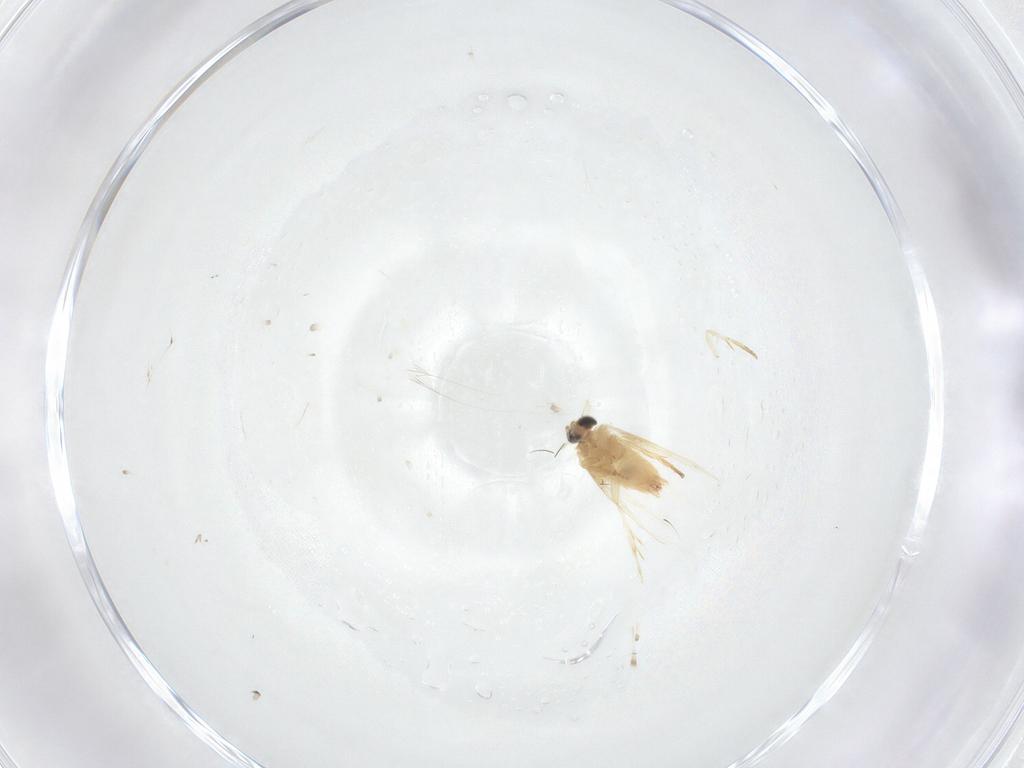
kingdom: Animalia
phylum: Arthropoda
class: Insecta
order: Lepidoptera
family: Crambidae
